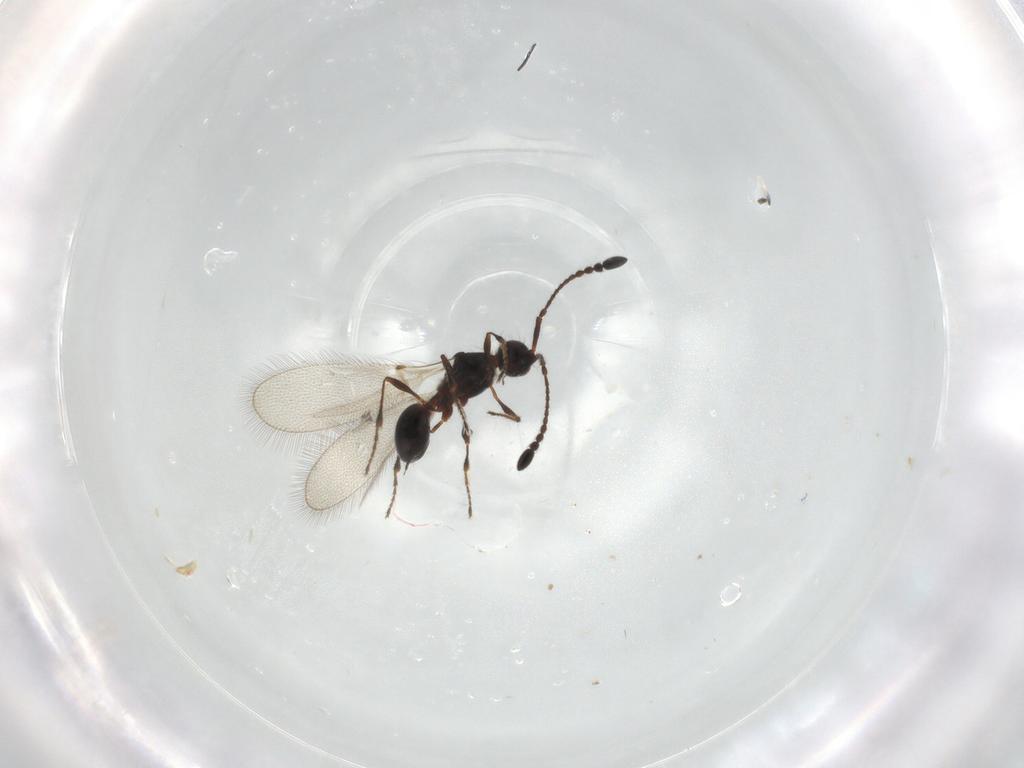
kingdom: Animalia
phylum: Arthropoda
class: Insecta
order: Hymenoptera
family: Diapriidae
